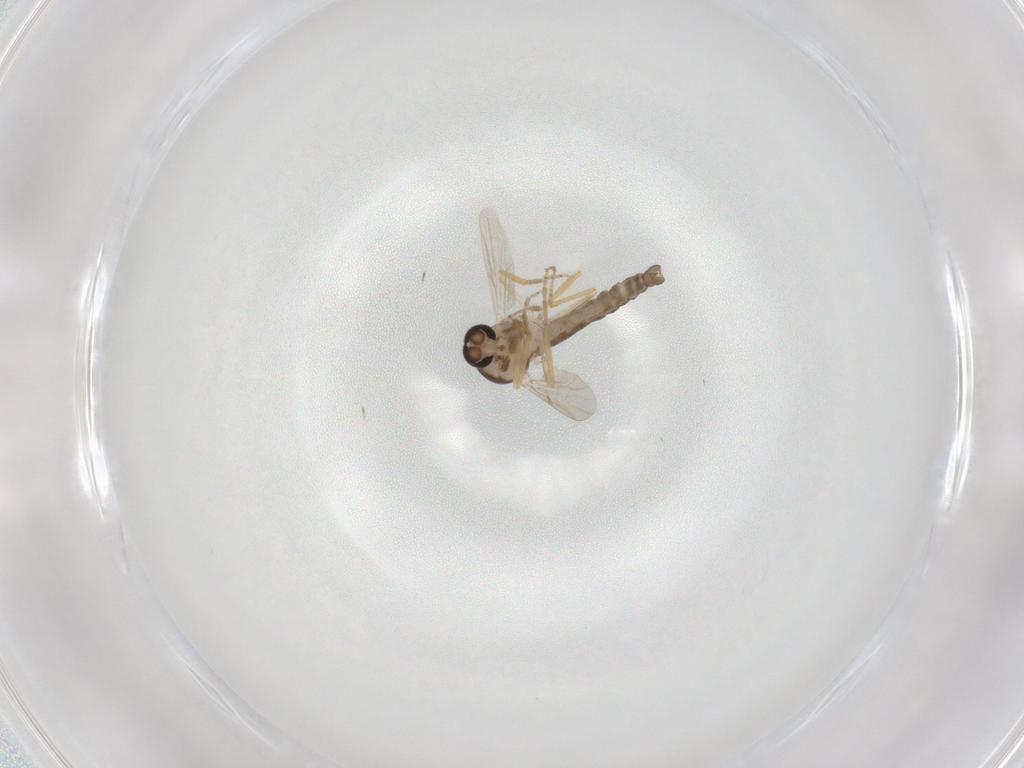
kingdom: Animalia
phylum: Arthropoda
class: Insecta
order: Diptera
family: Ceratopogonidae
